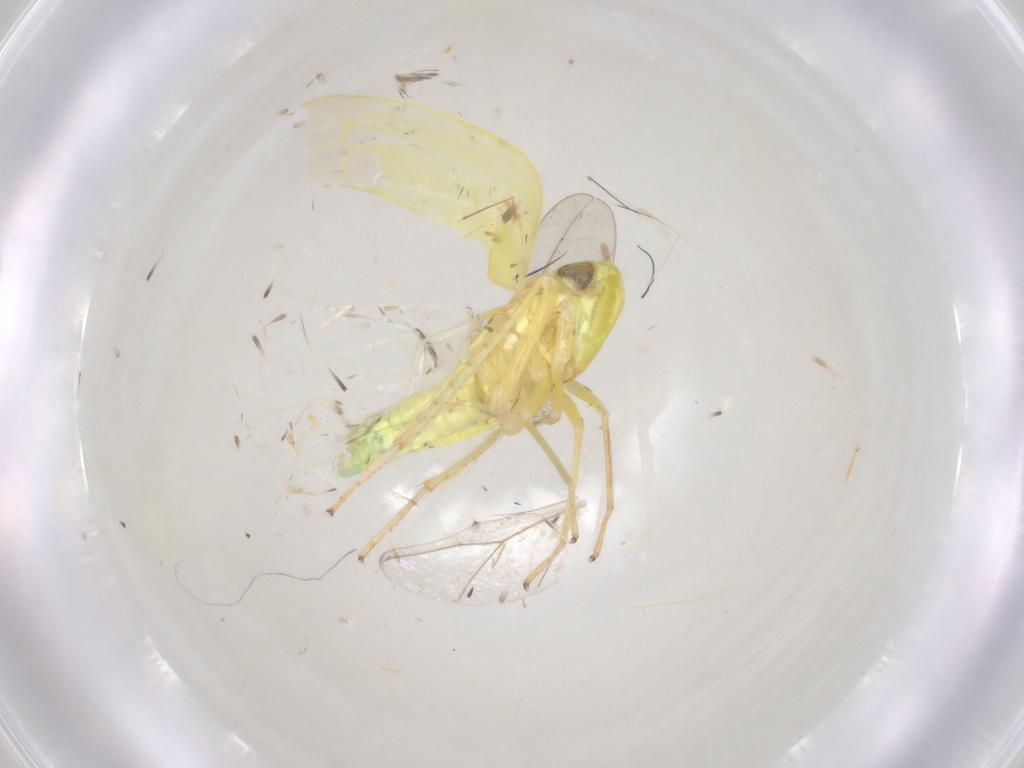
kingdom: Animalia
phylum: Arthropoda
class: Insecta
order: Hemiptera
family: Cicadellidae
